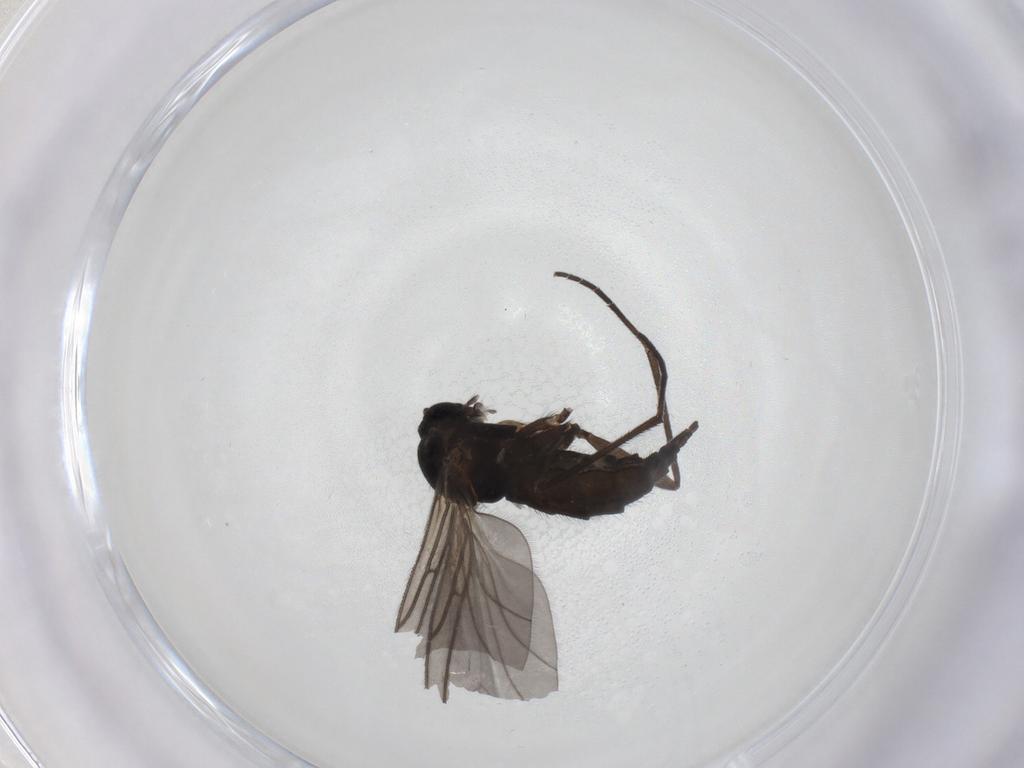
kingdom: Animalia
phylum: Arthropoda
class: Insecta
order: Diptera
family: Sciaridae
